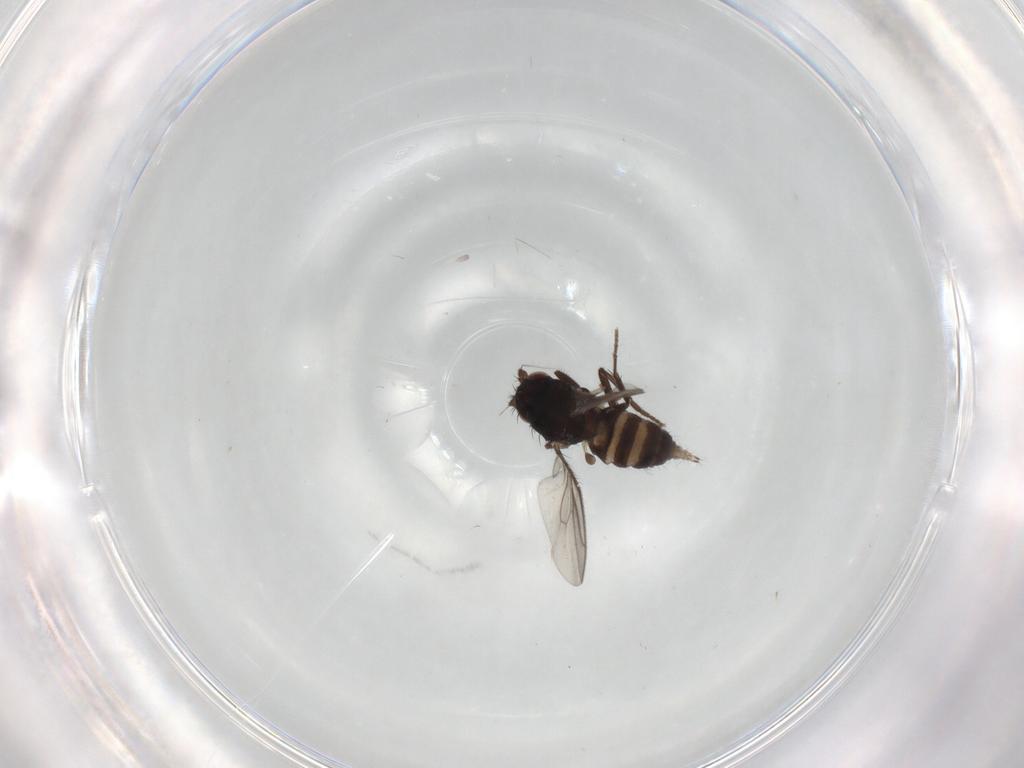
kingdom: Animalia
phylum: Arthropoda
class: Insecta
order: Diptera
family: Sphaeroceridae
